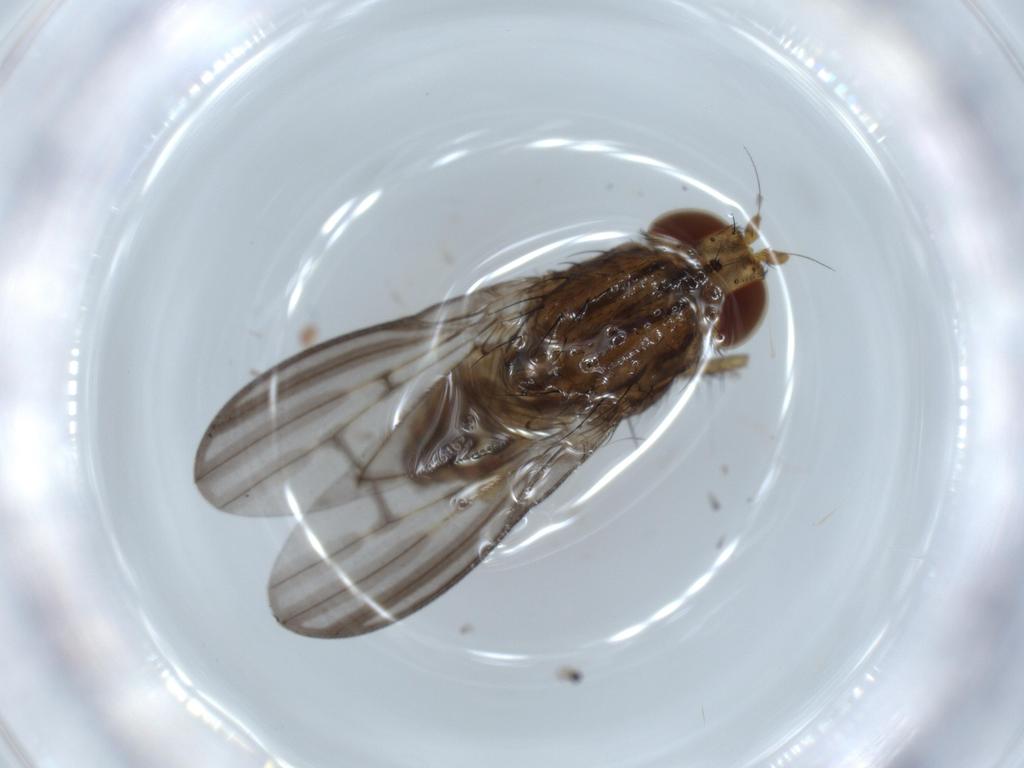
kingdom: Animalia
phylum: Arthropoda
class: Insecta
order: Diptera
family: Lauxaniidae
